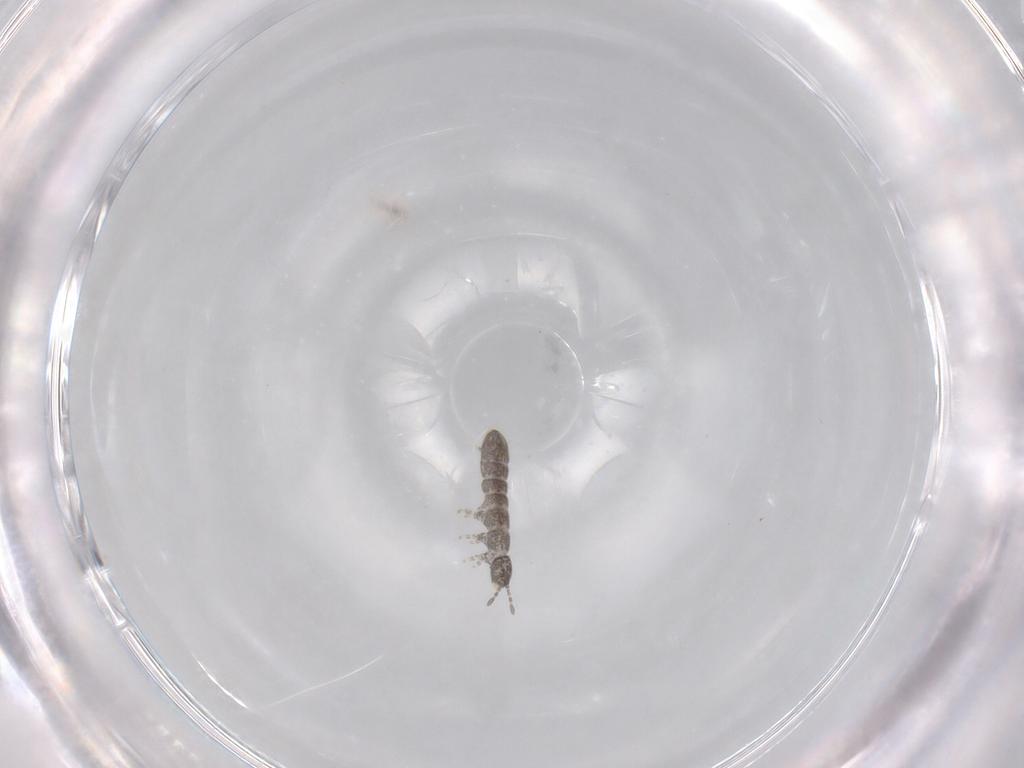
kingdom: Animalia
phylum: Arthropoda
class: Collembola
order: Entomobryomorpha
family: Isotomidae
